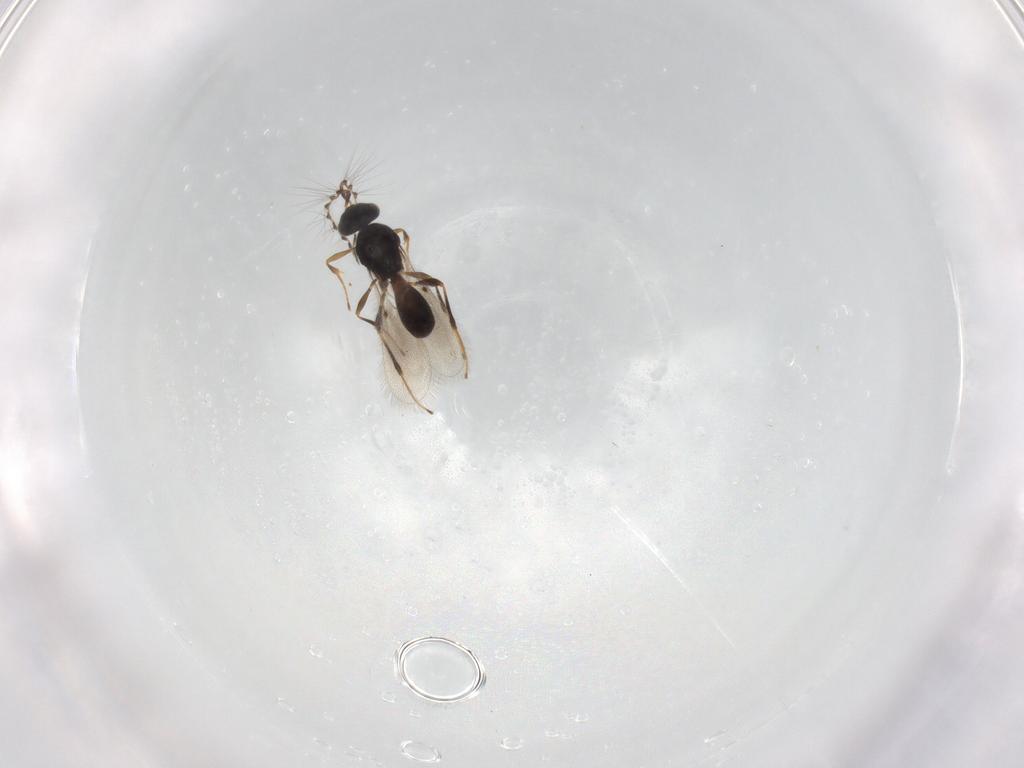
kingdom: Animalia
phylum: Arthropoda
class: Insecta
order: Hymenoptera
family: Platygastridae
